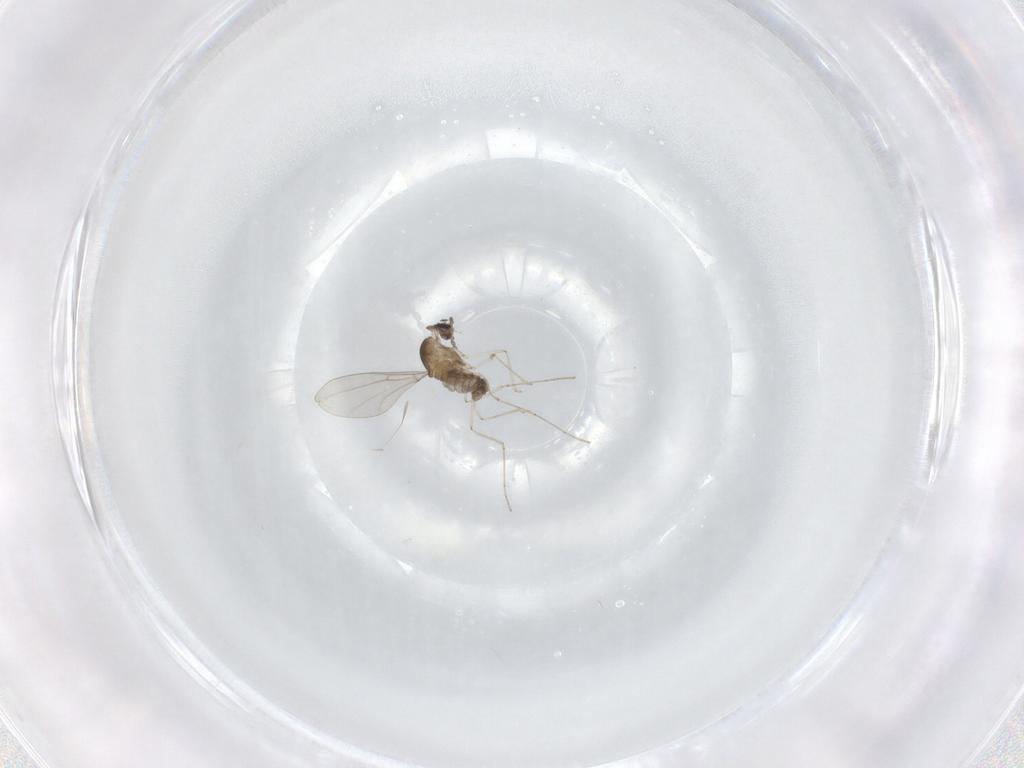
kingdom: Animalia
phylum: Arthropoda
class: Insecta
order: Diptera
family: Cecidomyiidae
